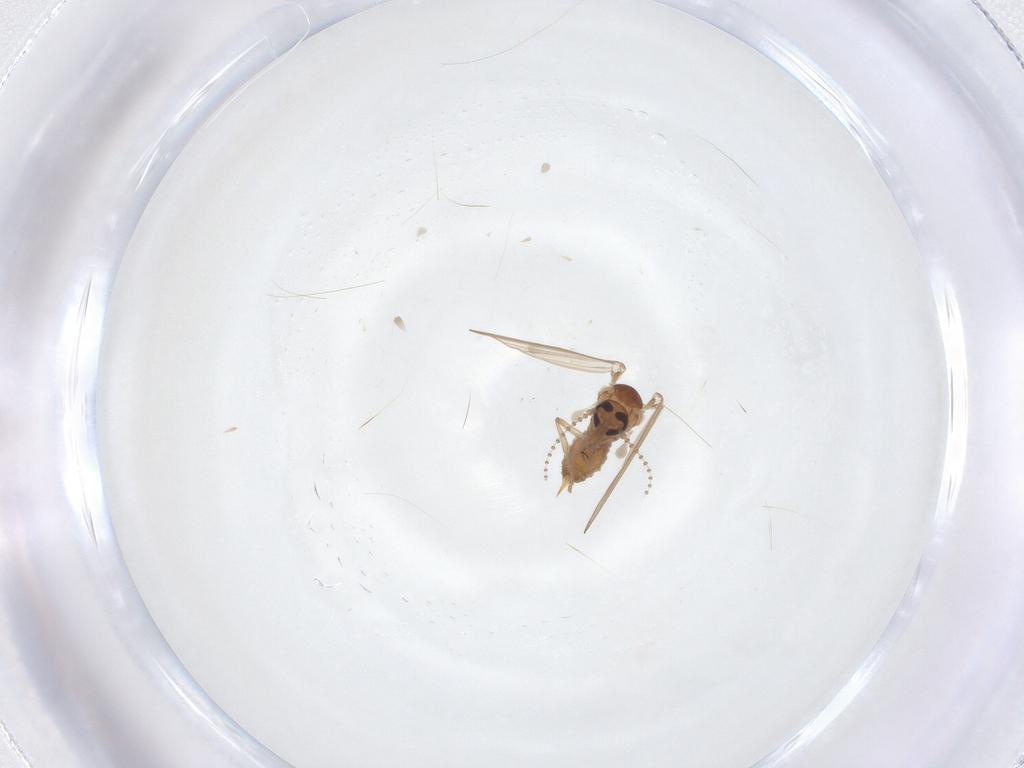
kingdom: Animalia
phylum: Arthropoda
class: Insecta
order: Diptera
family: Psychodidae
